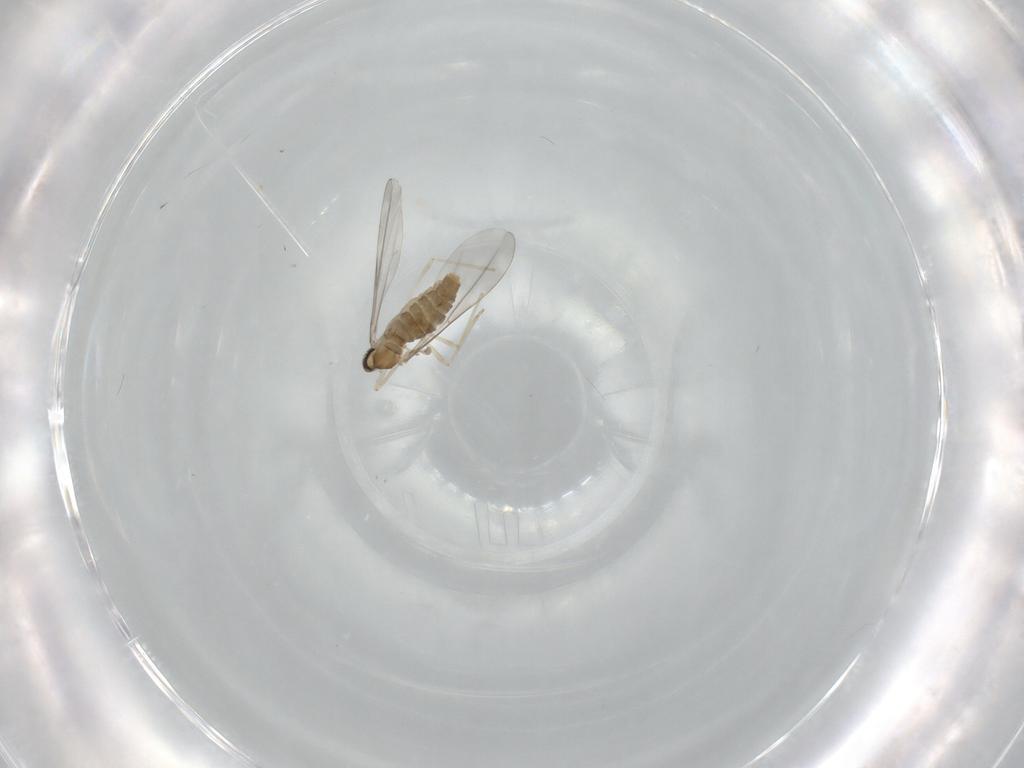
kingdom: Animalia
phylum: Arthropoda
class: Insecta
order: Diptera
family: Cecidomyiidae
